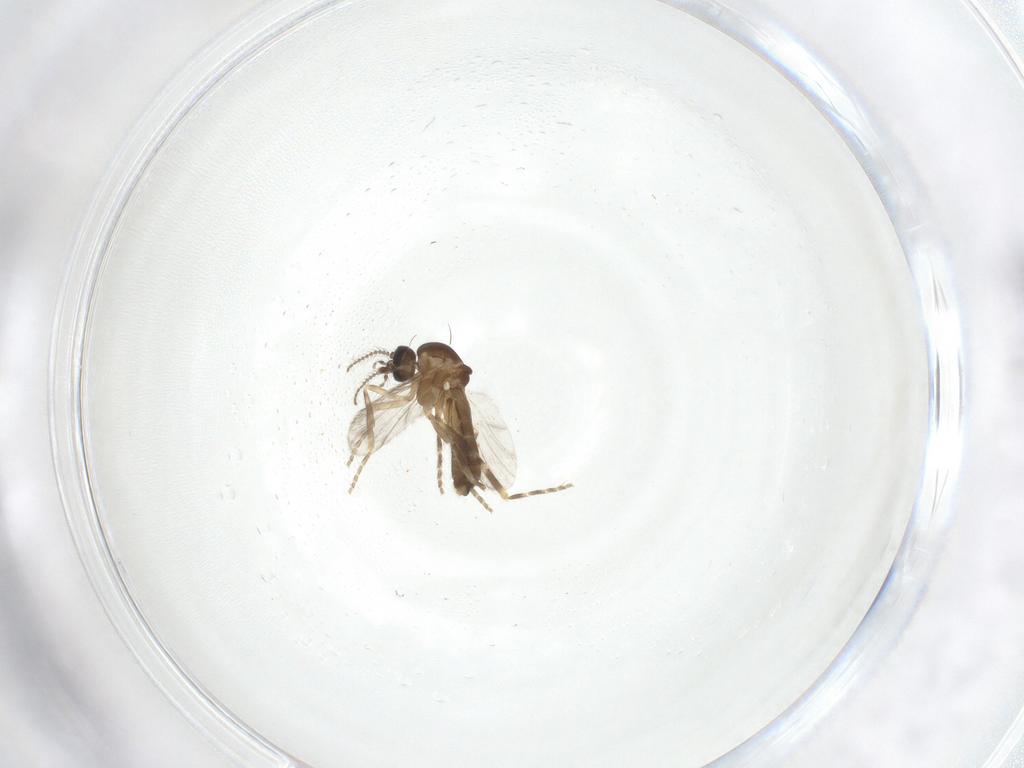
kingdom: Animalia
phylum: Arthropoda
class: Insecta
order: Diptera
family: Ceratopogonidae
